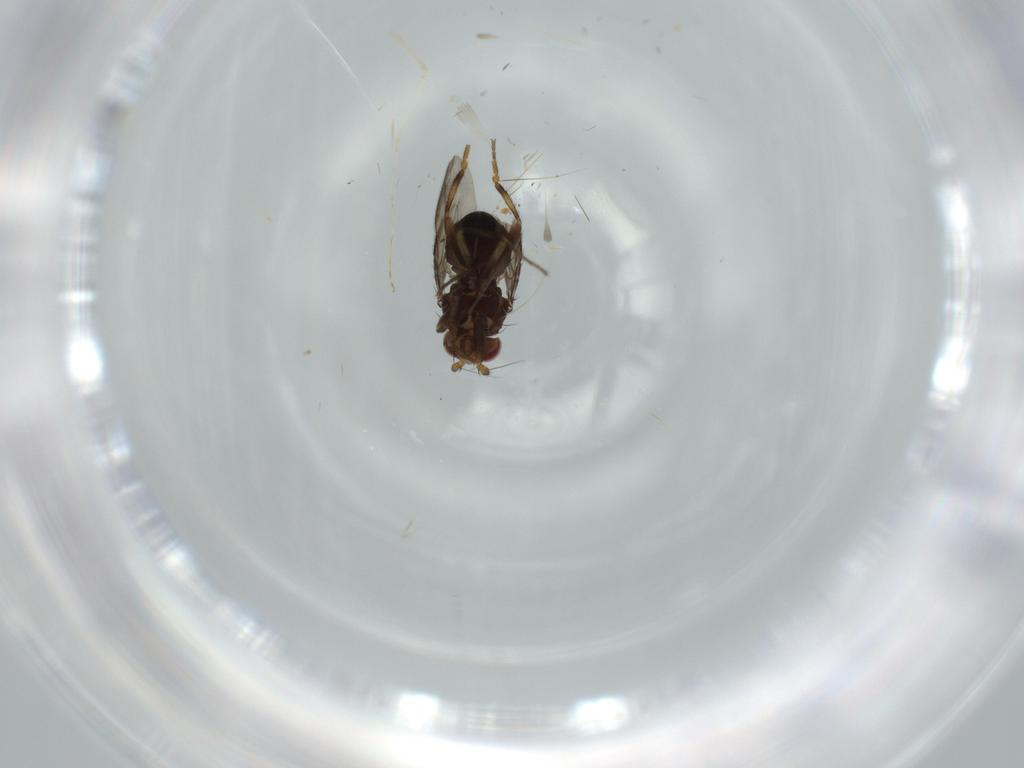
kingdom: Animalia
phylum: Arthropoda
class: Insecta
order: Diptera
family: Sphaeroceridae
